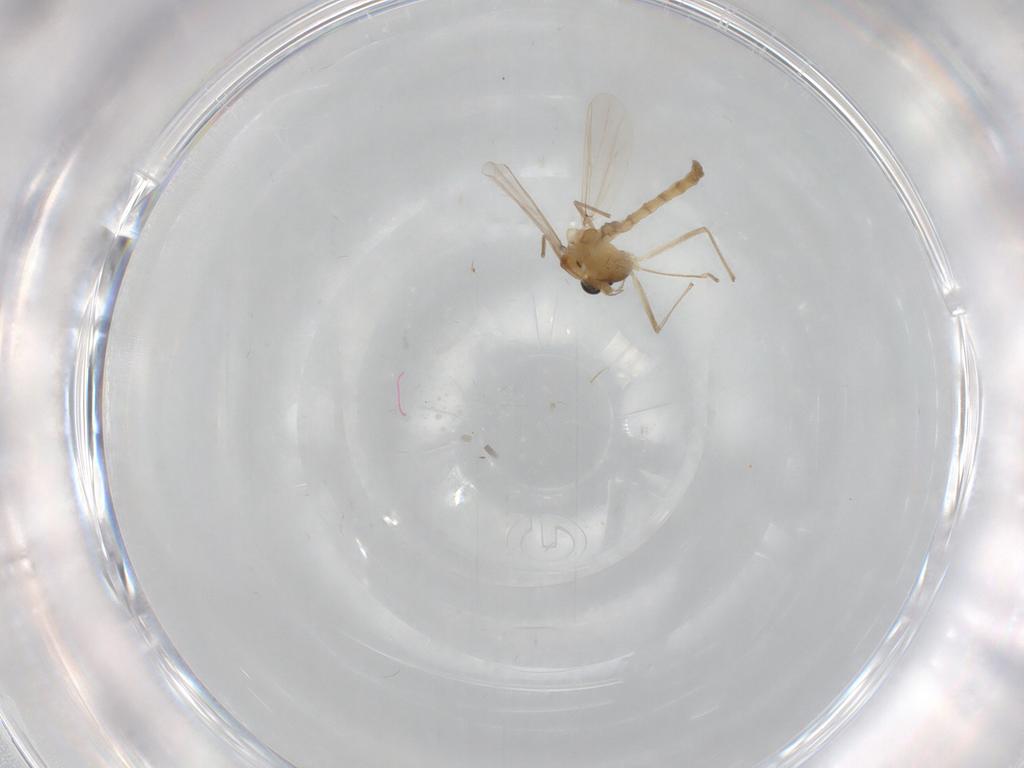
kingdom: Animalia
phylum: Arthropoda
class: Insecta
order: Diptera
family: Chironomidae
